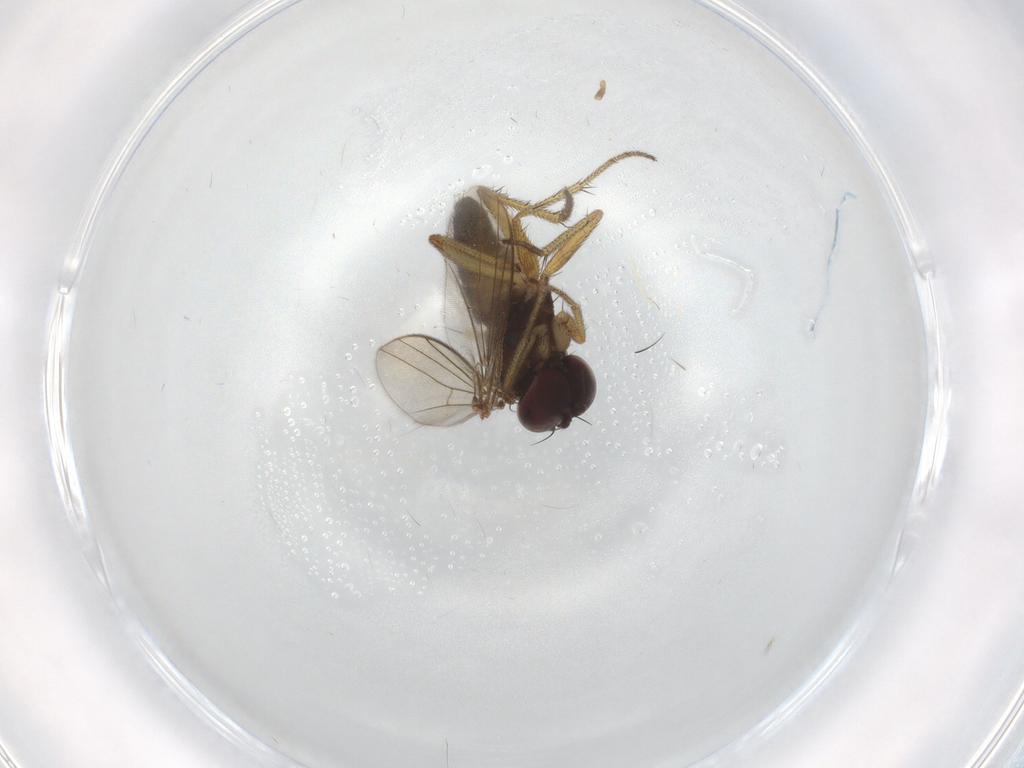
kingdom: Animalia
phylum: Arthropoda
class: Insecta
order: Diptera
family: Dolichopodidae
